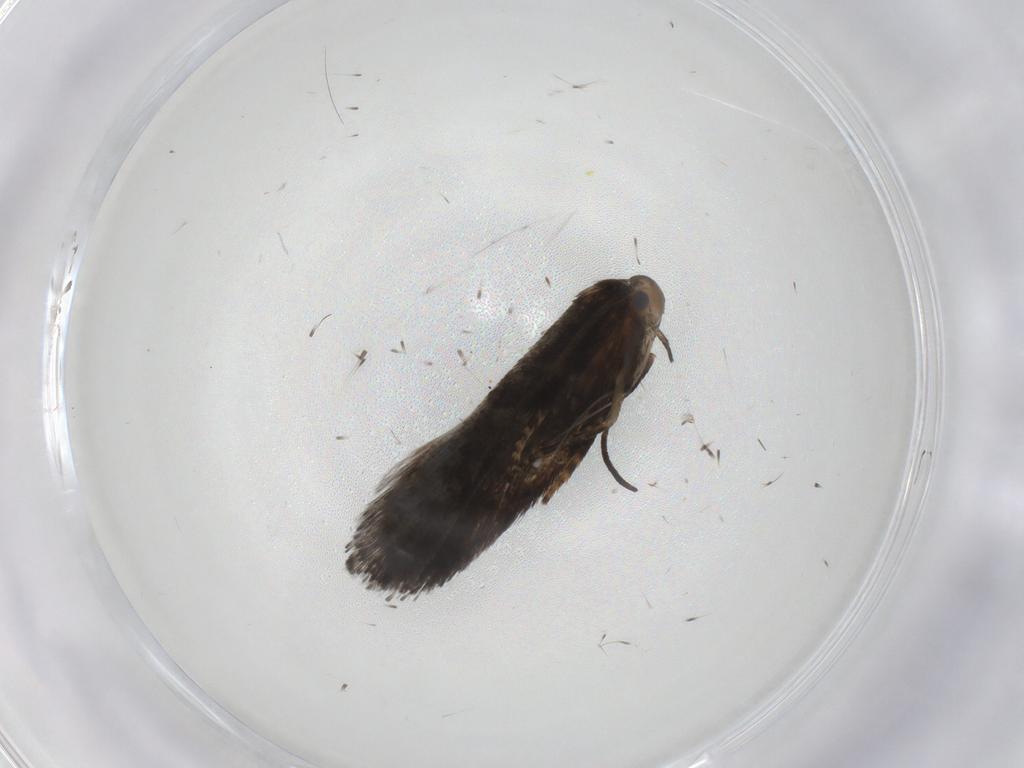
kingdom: Animalia
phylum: Arthropoda
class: Insecta
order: Lepidoptera
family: Pieridae
